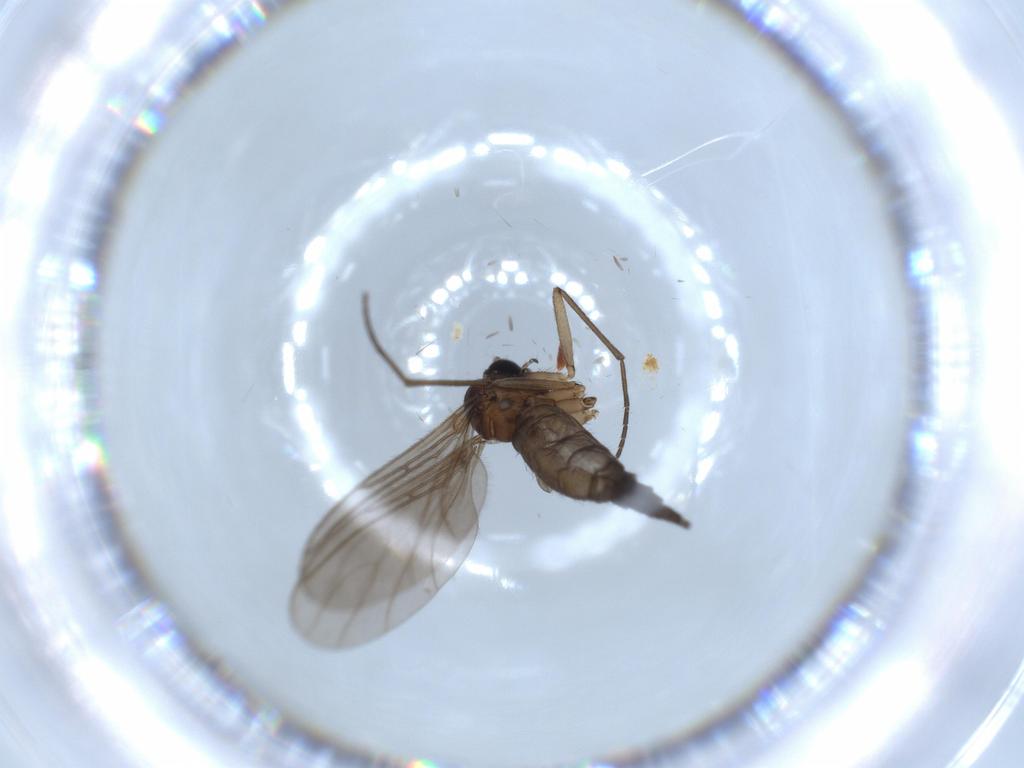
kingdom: Animalia
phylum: Arthropoda
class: Insecta
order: Diptera
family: Sciaridae
